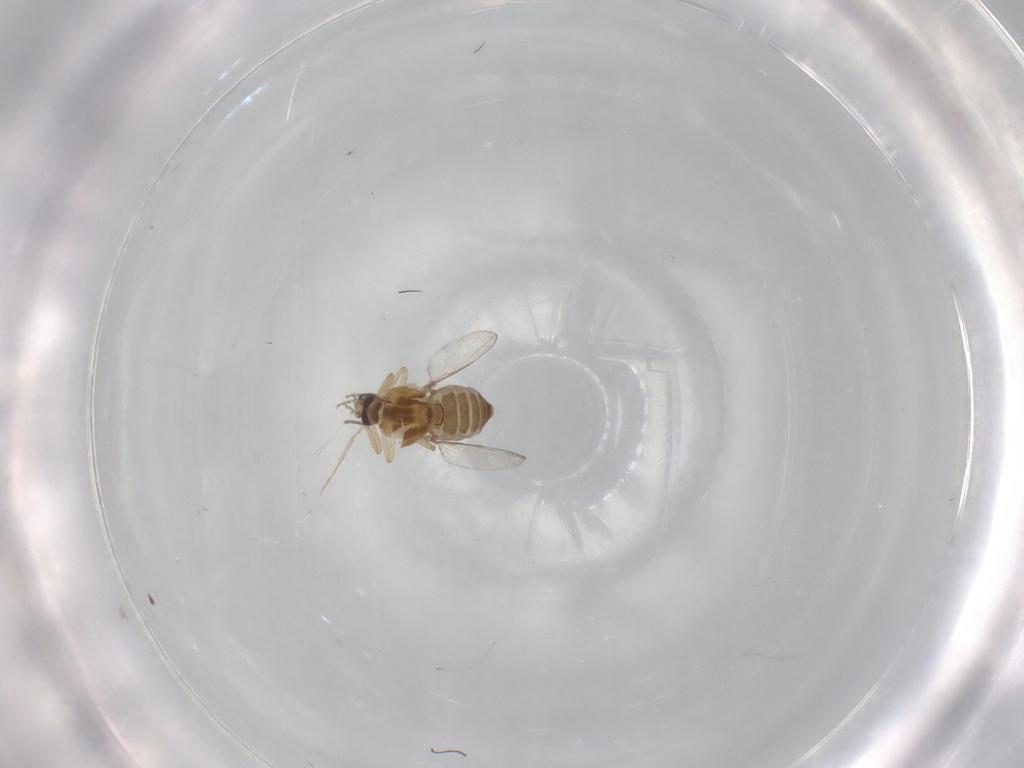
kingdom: Animalia
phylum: Arthropoda
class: Insecta
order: Diptera
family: Ceratopogonidae
